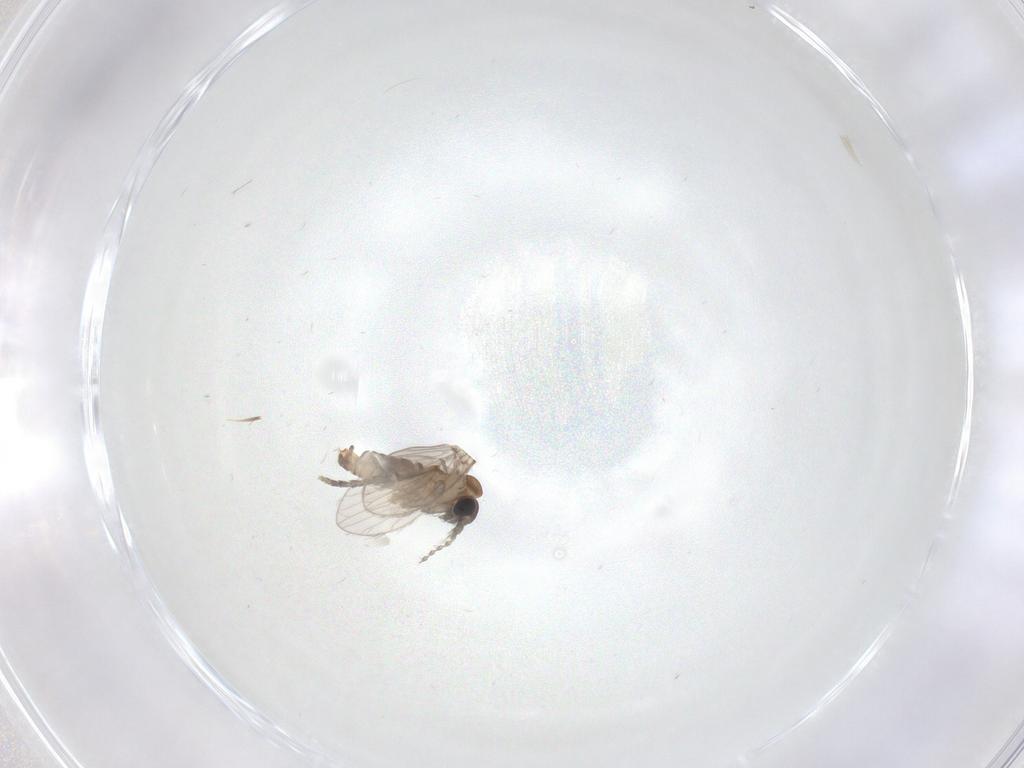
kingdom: Animalia
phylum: Arthropoda
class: Insecta
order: Diptera
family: Psychodidae
